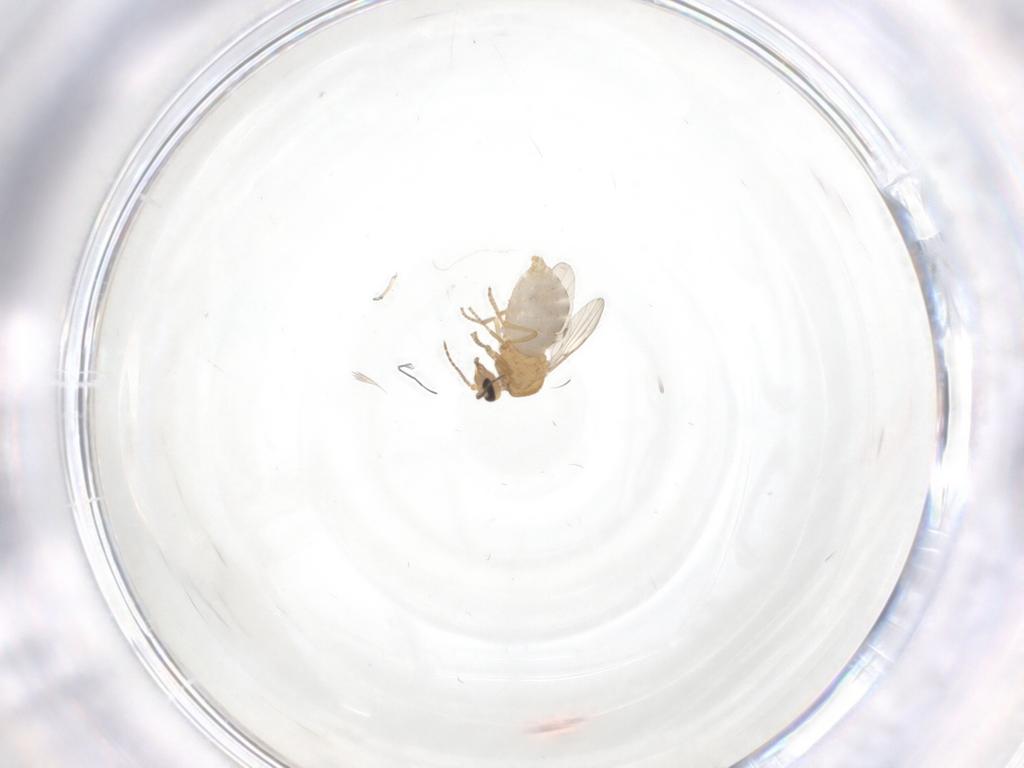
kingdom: Animalia
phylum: Arthropoda
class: Insecta
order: Diptera
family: Ceratopogonidae
